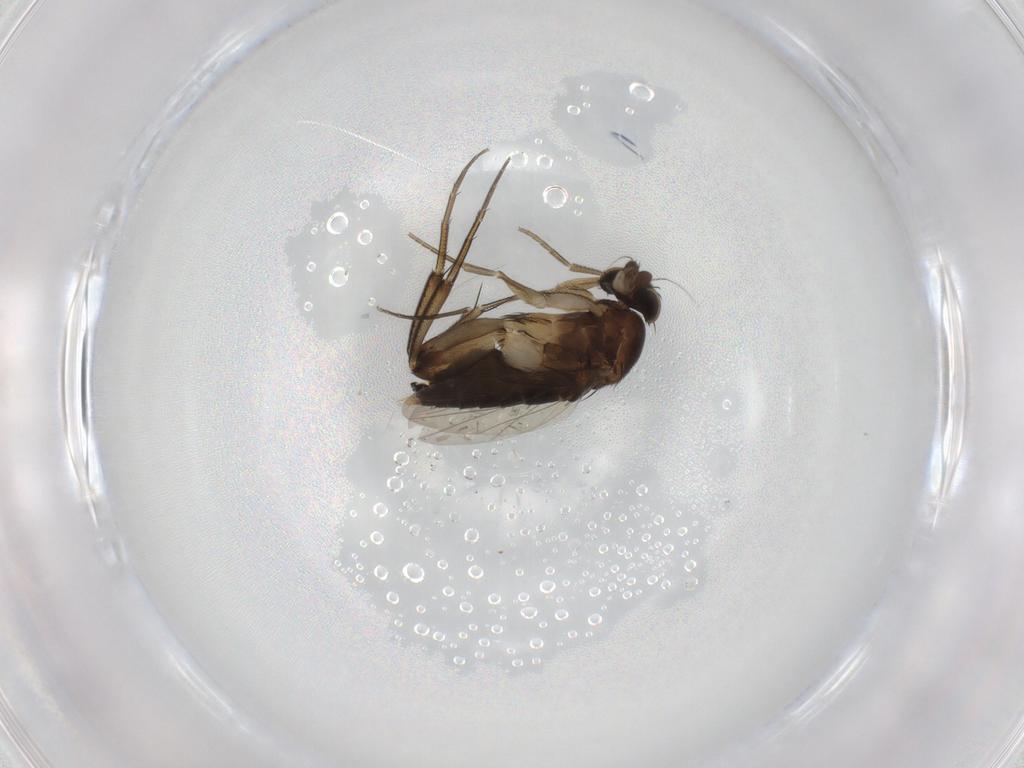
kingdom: Animalia
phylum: Arthropoda
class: Insecta
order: Diptera
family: Phoridae
